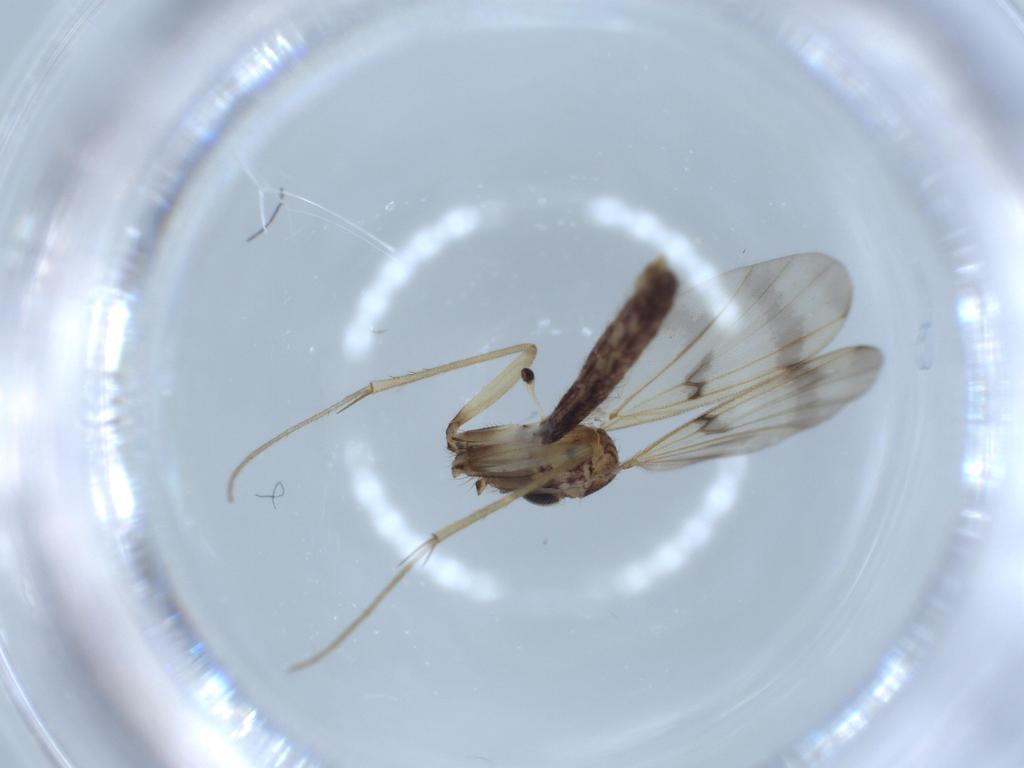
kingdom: Animalia
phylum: Arthropoda
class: Insecta
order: Diptera
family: Mycetophilidae
